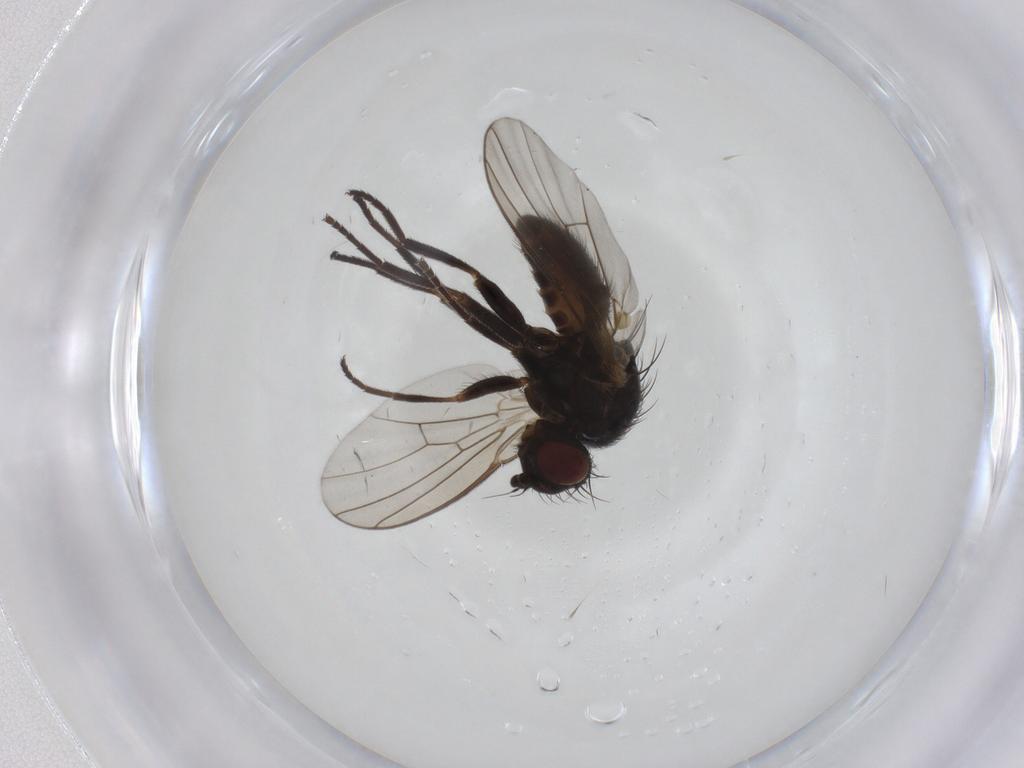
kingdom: Animalia
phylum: Arthropoda
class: Insecta
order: Diptera
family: Agromyzidae
